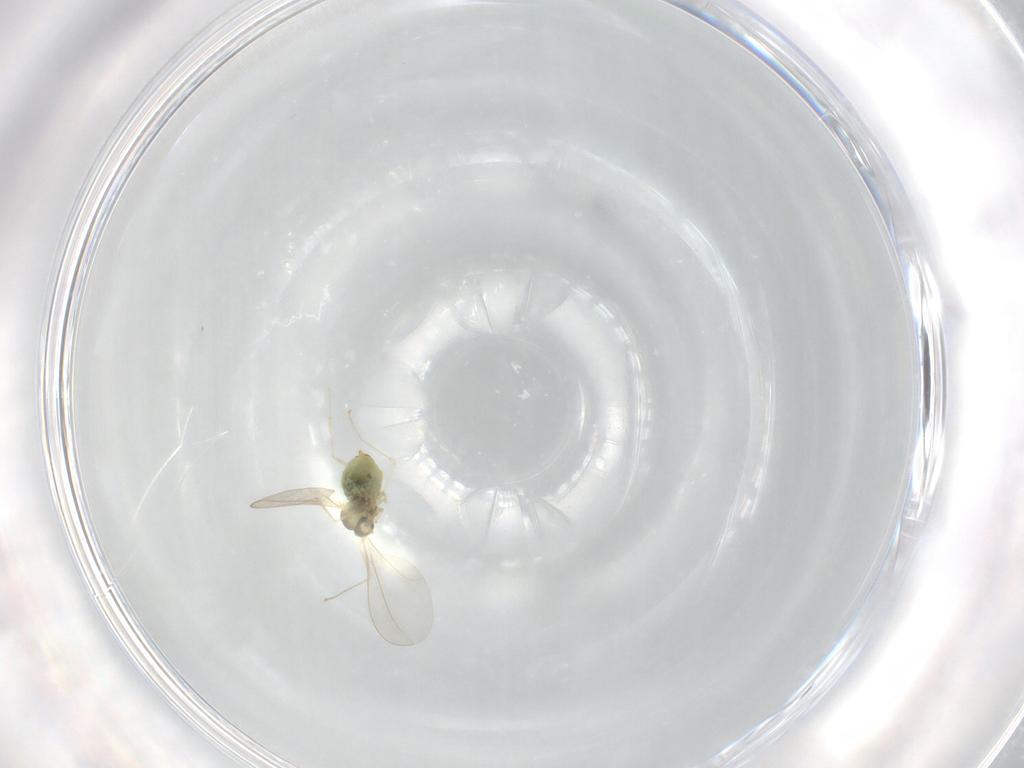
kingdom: Animalia
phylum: Arthropoda
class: Insecta
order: Diptera
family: Cecidomyiidae
